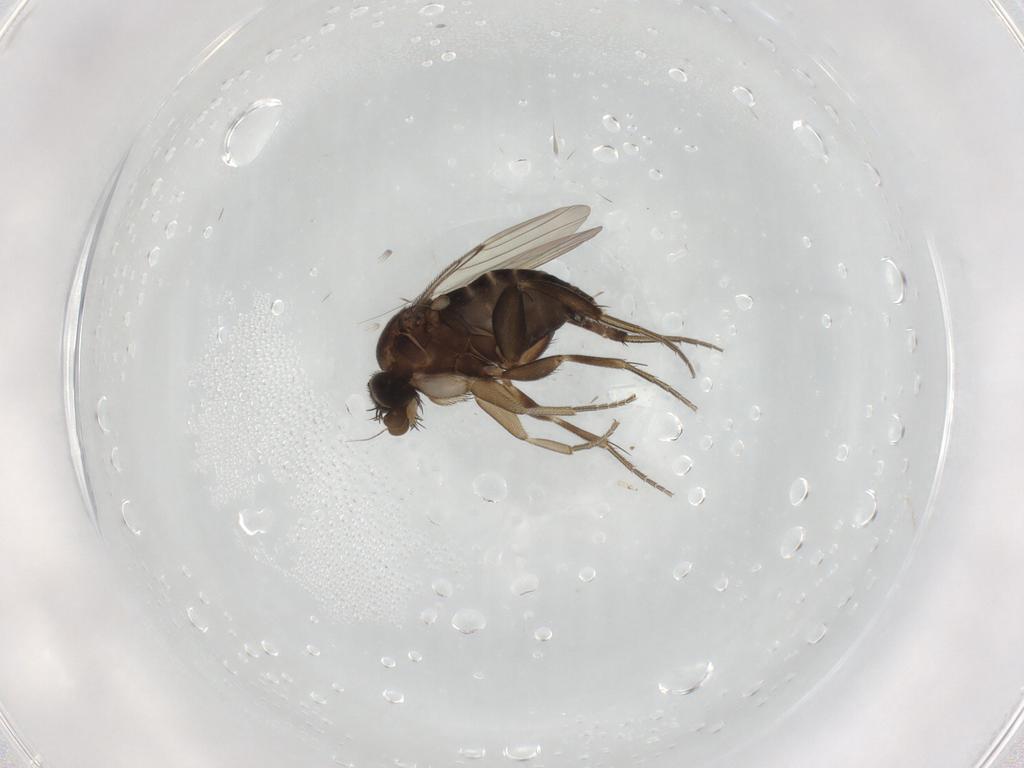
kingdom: Animalia
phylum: Arthropoda
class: Insecta
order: Diptera
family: Phoridae
